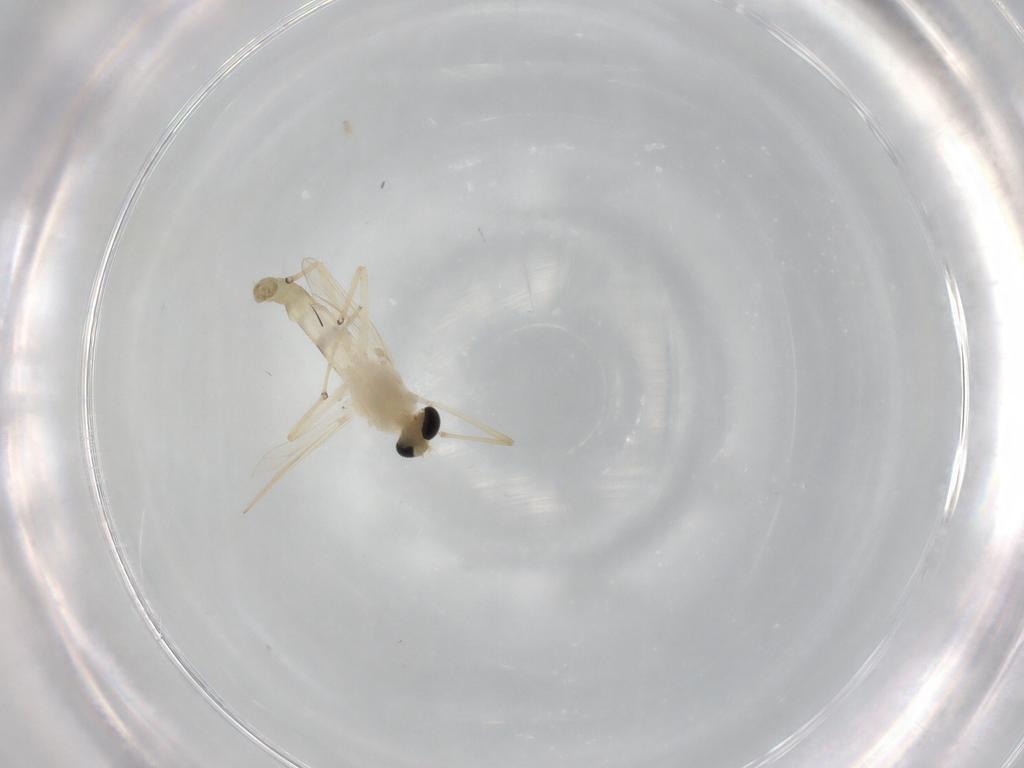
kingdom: Animalia
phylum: Arthropoda
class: Insecta
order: Diptera
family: Chironomidae
